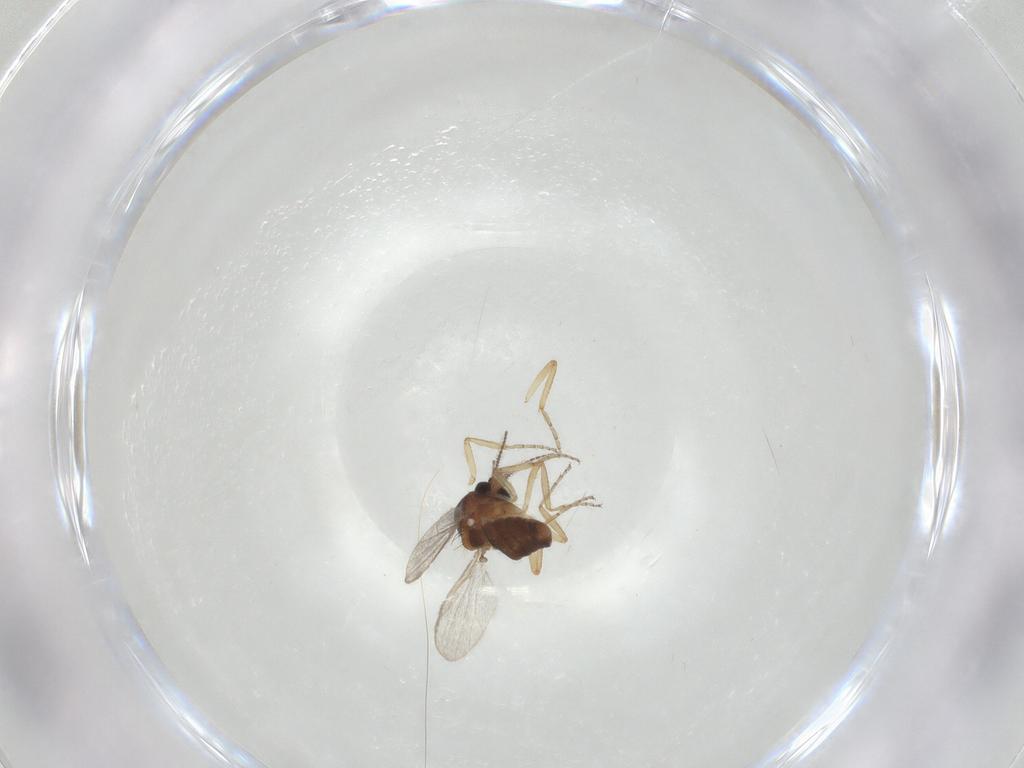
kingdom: Animalia
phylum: Arthropoda
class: Insecta
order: Diptera
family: Ceratopogonidae
